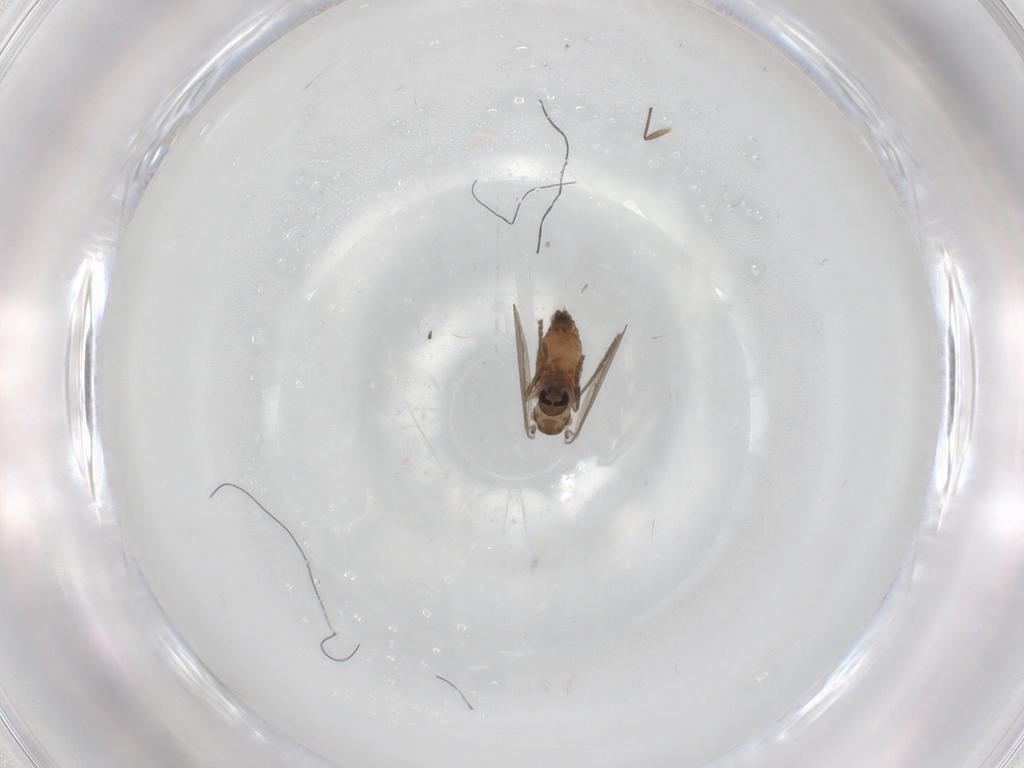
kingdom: Animalia
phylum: Arthropoda
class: Insecta
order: Diptera
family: Psychodidae
